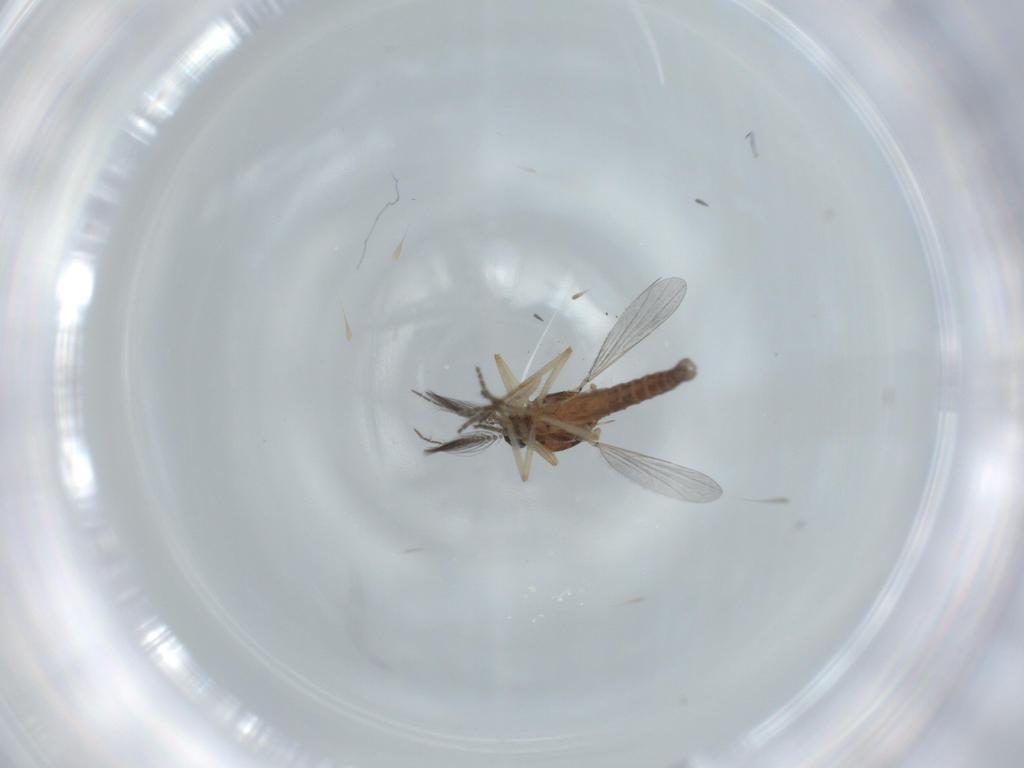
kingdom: Animalia
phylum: Arthropoda
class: Insecta
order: Diptera
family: Ceratopogonidae
